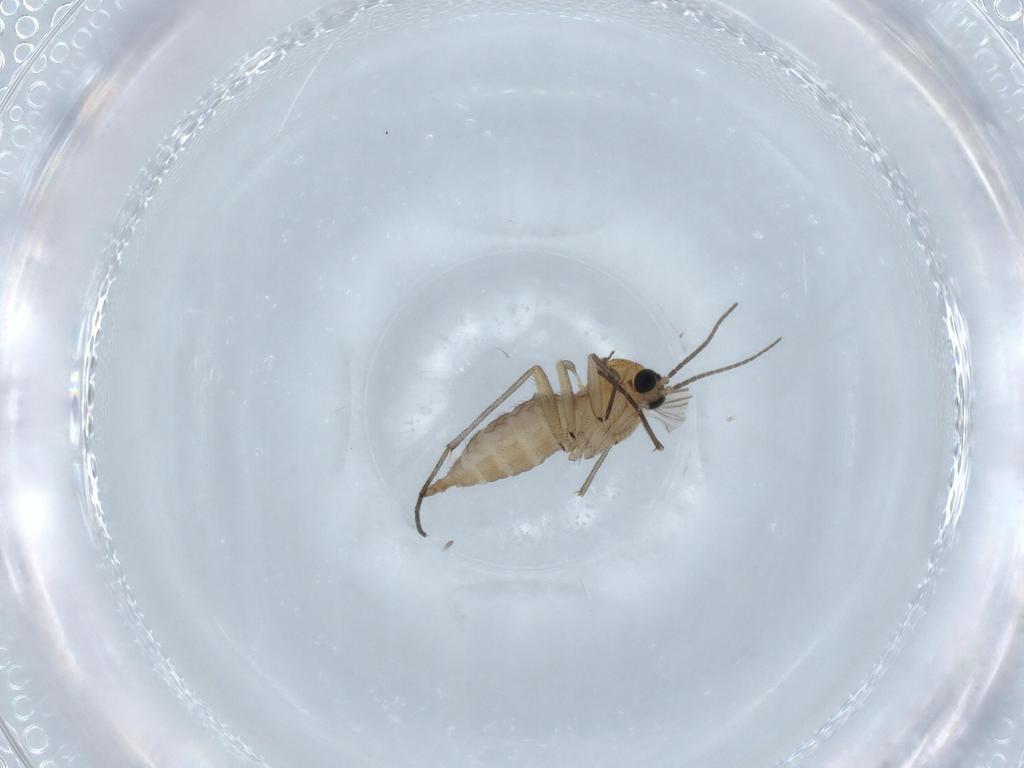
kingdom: Animalia
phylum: Arthropoda
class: Insecta
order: Diptera
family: Sciaridae
